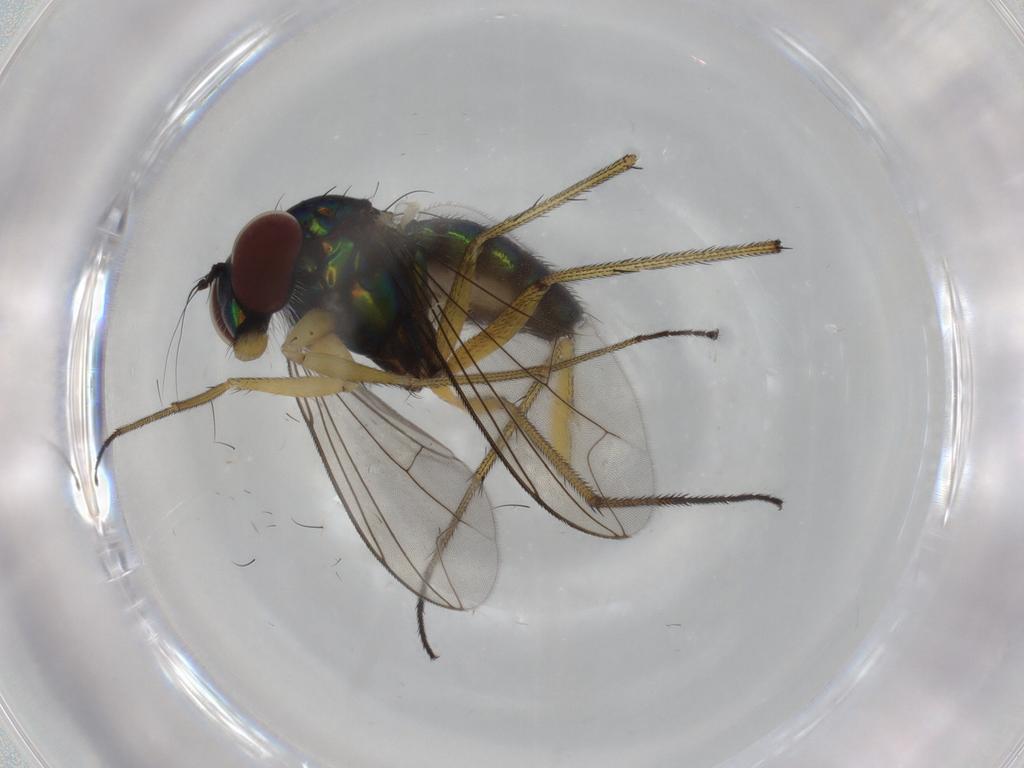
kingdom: Animalia
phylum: Arthropoda
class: Insecta
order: Diptera
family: Dolichopodidae
